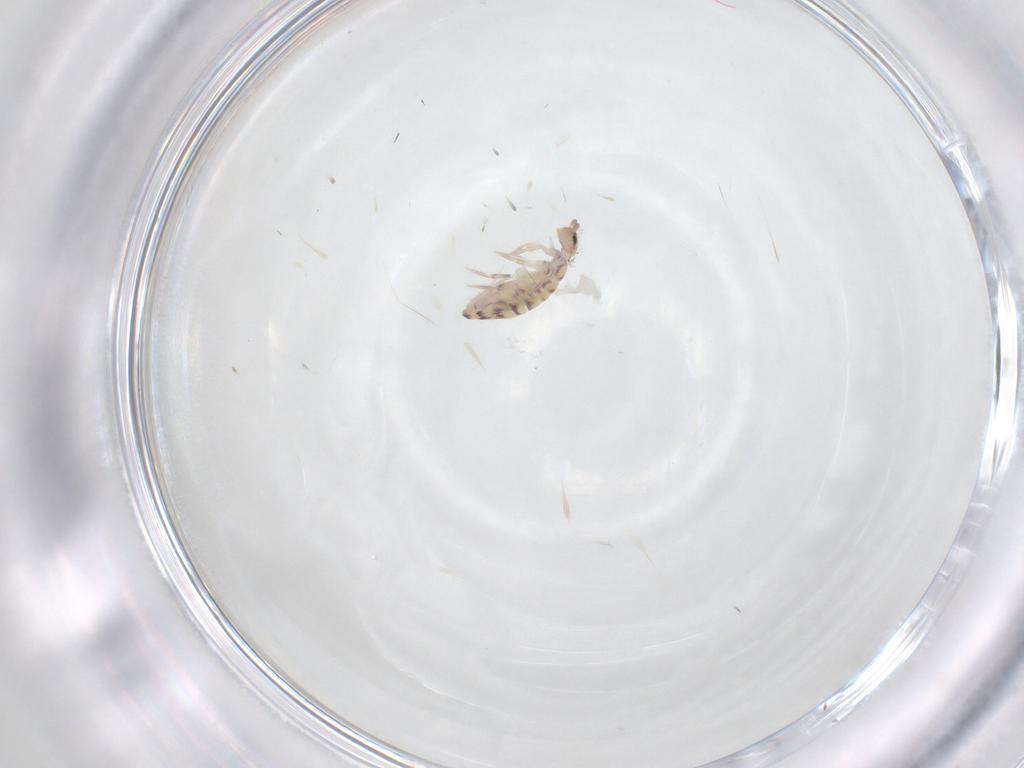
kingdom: Animalia
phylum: Arthropoda
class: Collembola
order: Entomobryomorpha
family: Entomobryidae
